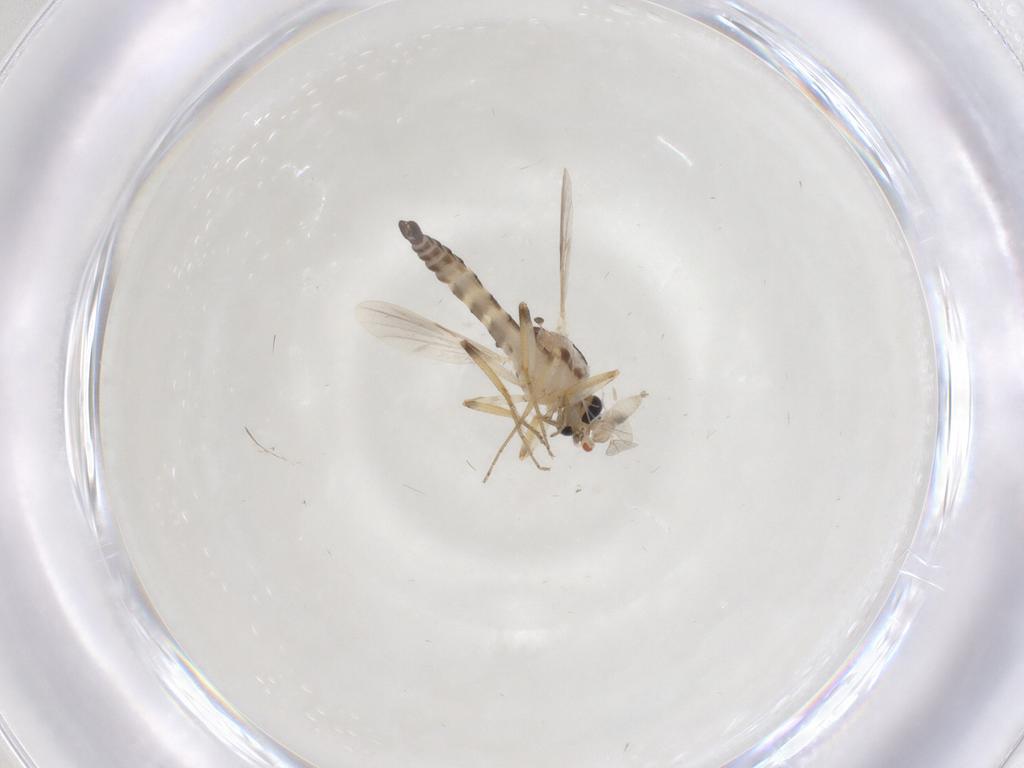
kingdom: Animalia
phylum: Arthropoda
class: Insecta
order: Diptera
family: Cecidomyiidae
